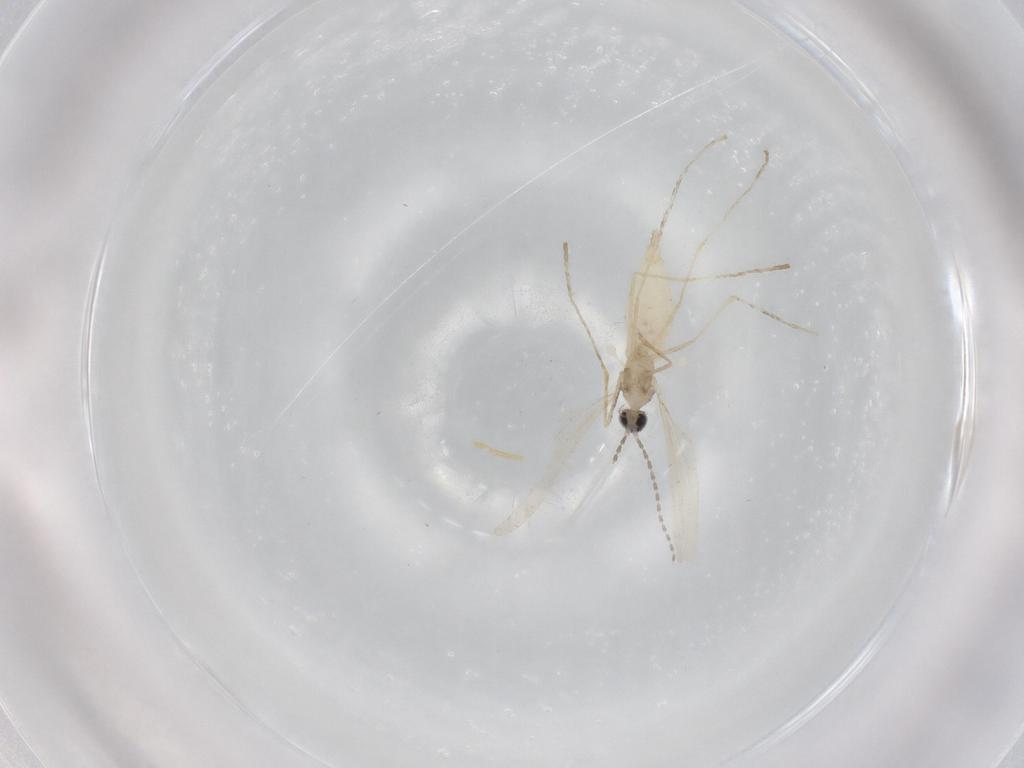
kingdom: Animalia
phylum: Arthropoda
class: Insecta
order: Diptera
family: Cecidomyiidae
